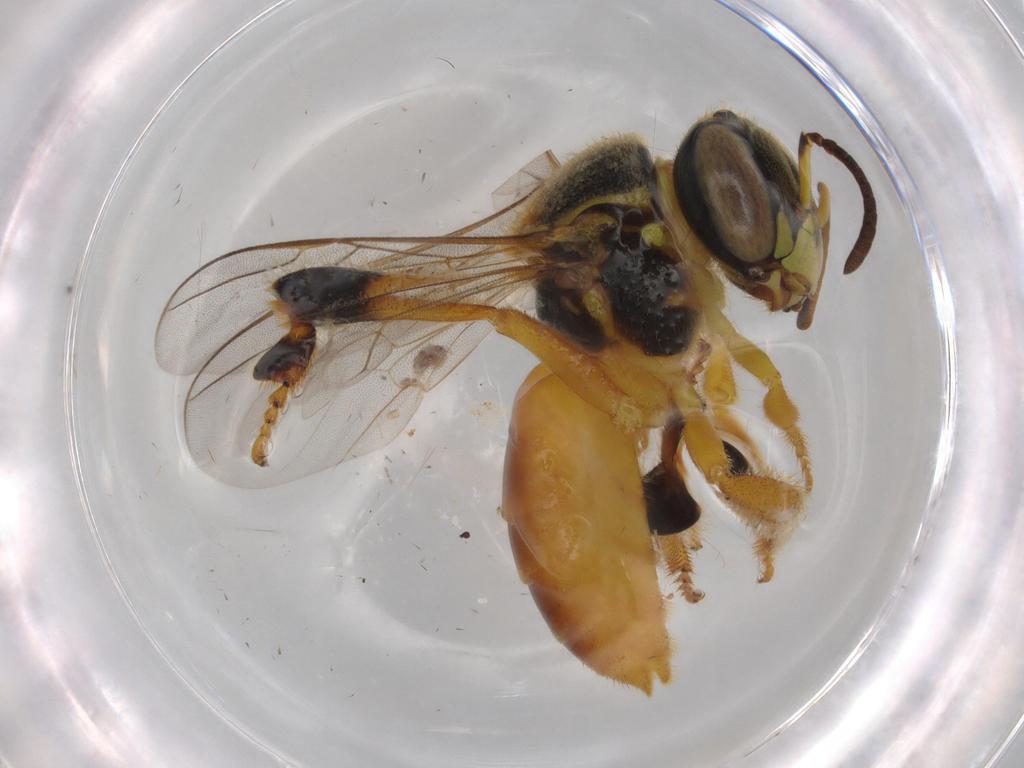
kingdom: Animalia
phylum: Arthropoda
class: Insecta
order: Hymenoptera
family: Apidae
